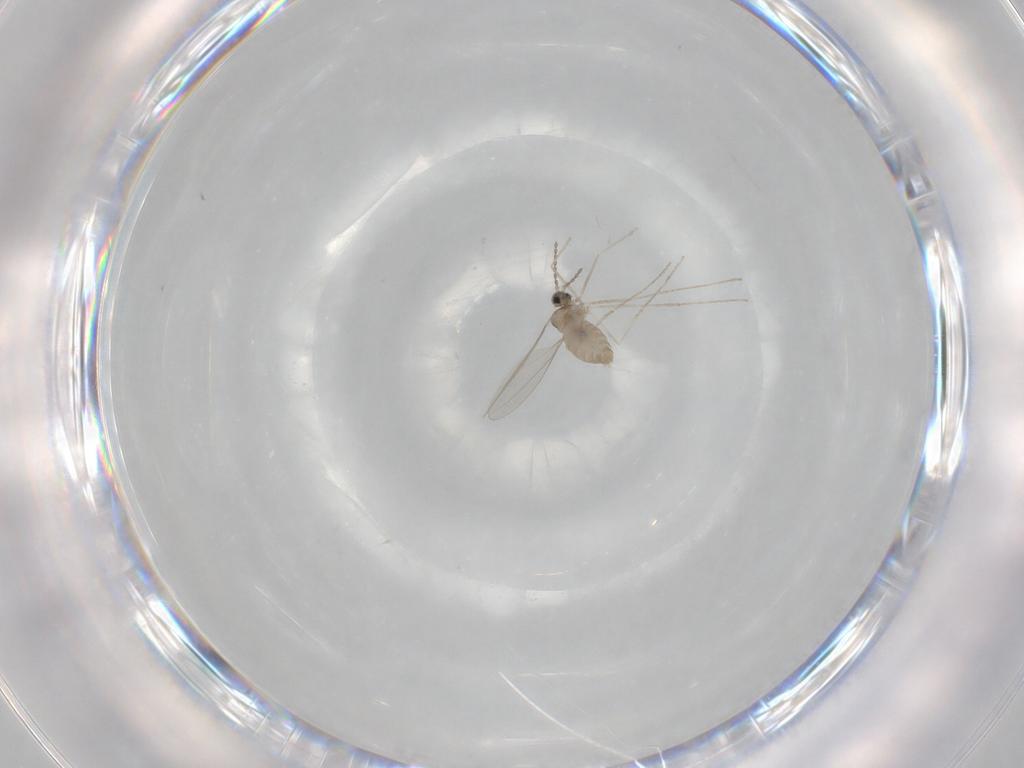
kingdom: Animalia
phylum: Arthropoda
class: Insecta
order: Diptera
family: Cecidomyiidae
